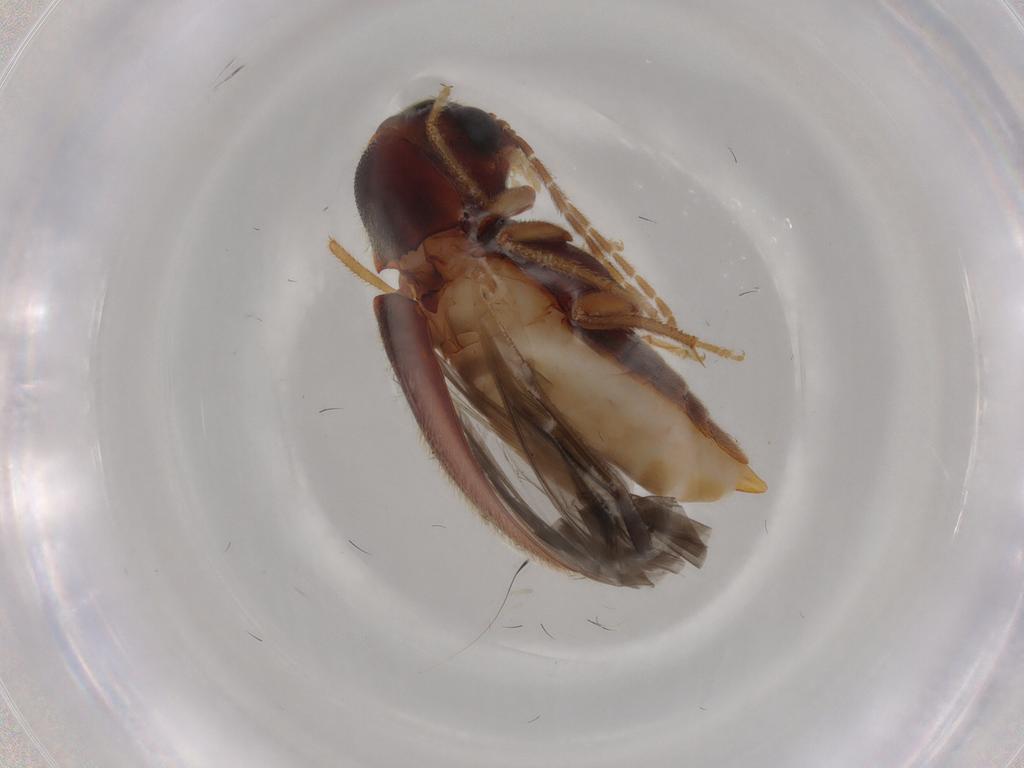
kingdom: Animalia
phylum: Arthropoda
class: Insecta
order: Coleoptera
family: Ptilodactylidae
